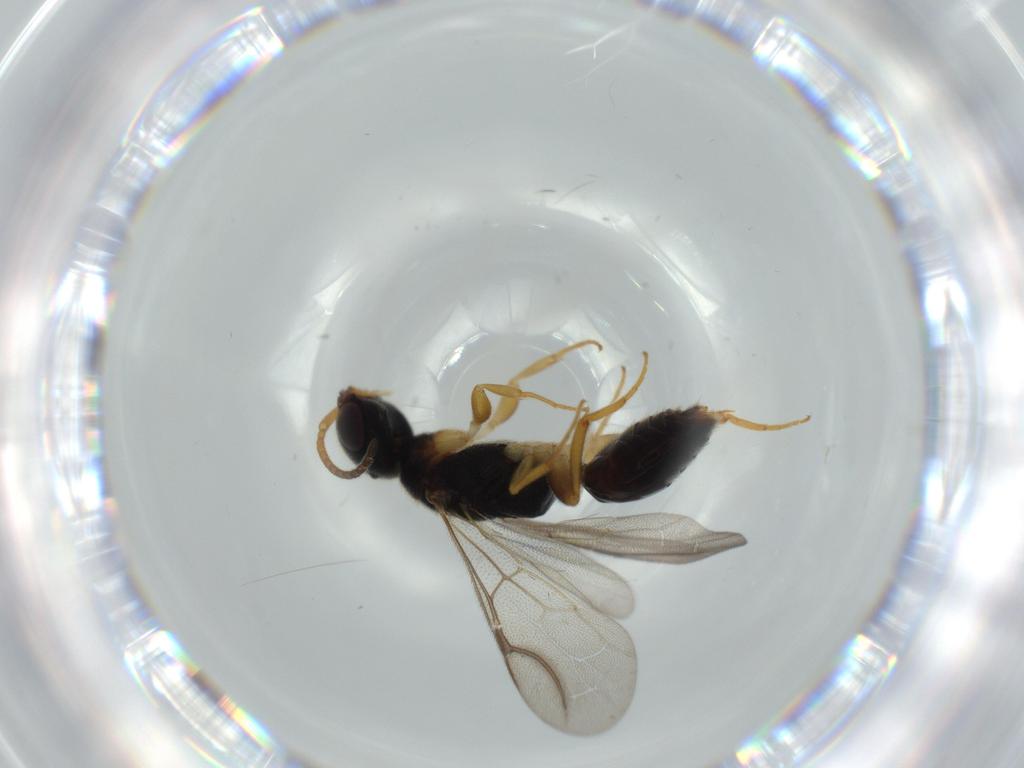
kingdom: Animalia
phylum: Arthropoda
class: Insecta
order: Hymenoptera
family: Bethylidae
